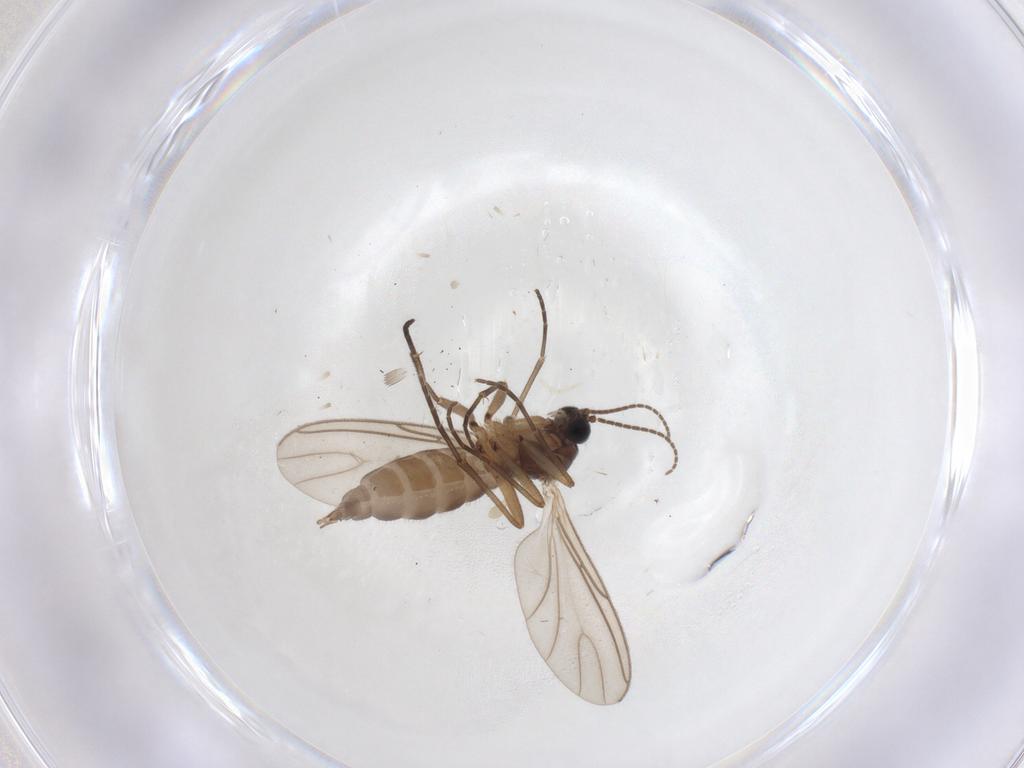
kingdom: Animalia
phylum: Arthropoda
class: Insecta
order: Diptera
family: Sciaridae
